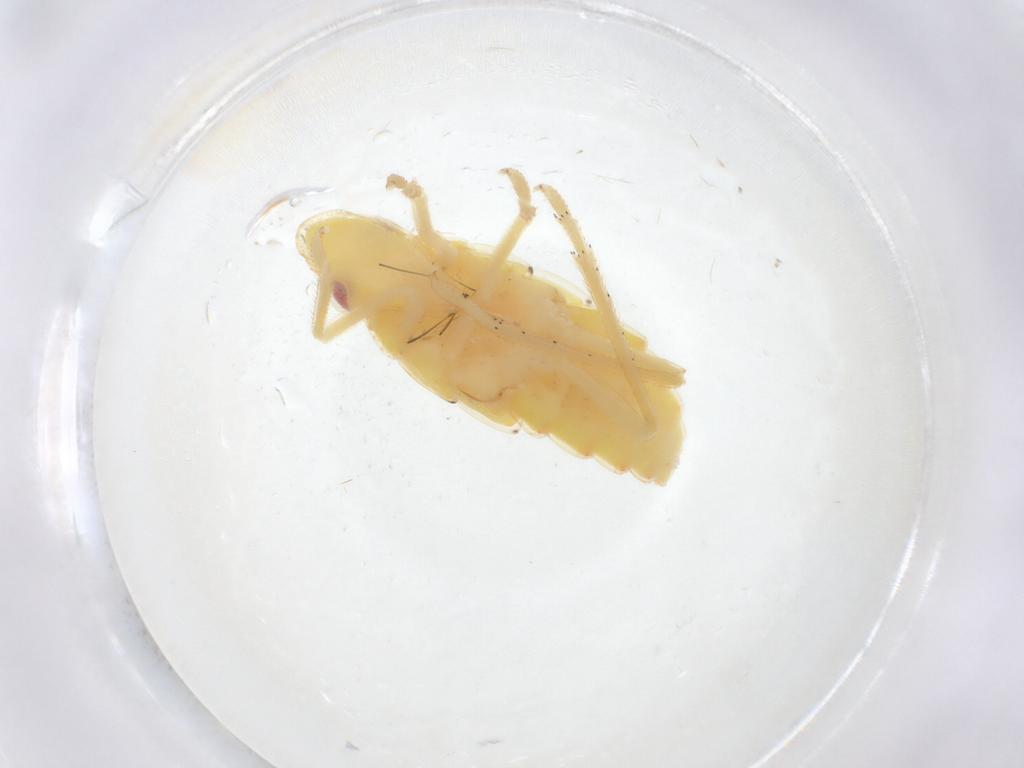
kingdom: Animalia
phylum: Arthropoda
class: Insecta
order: Hemiptera
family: Tropiduchidae
